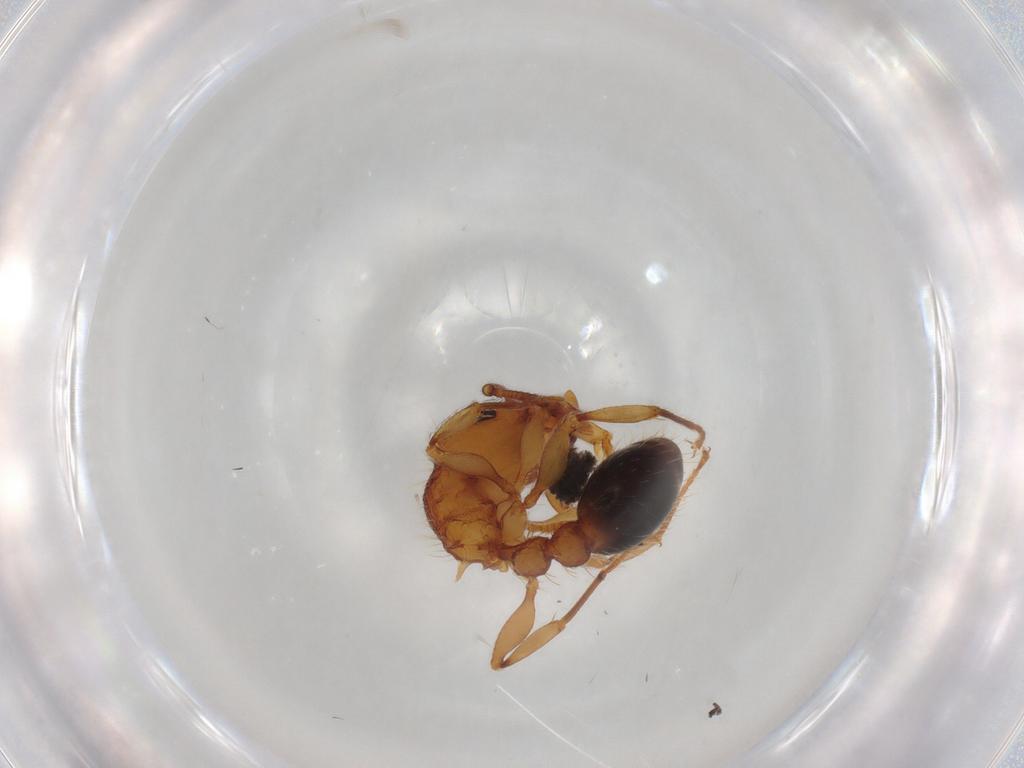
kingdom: Animalia
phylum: Arthropoda
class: Insecta
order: Hymenoptera
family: Formicidae
